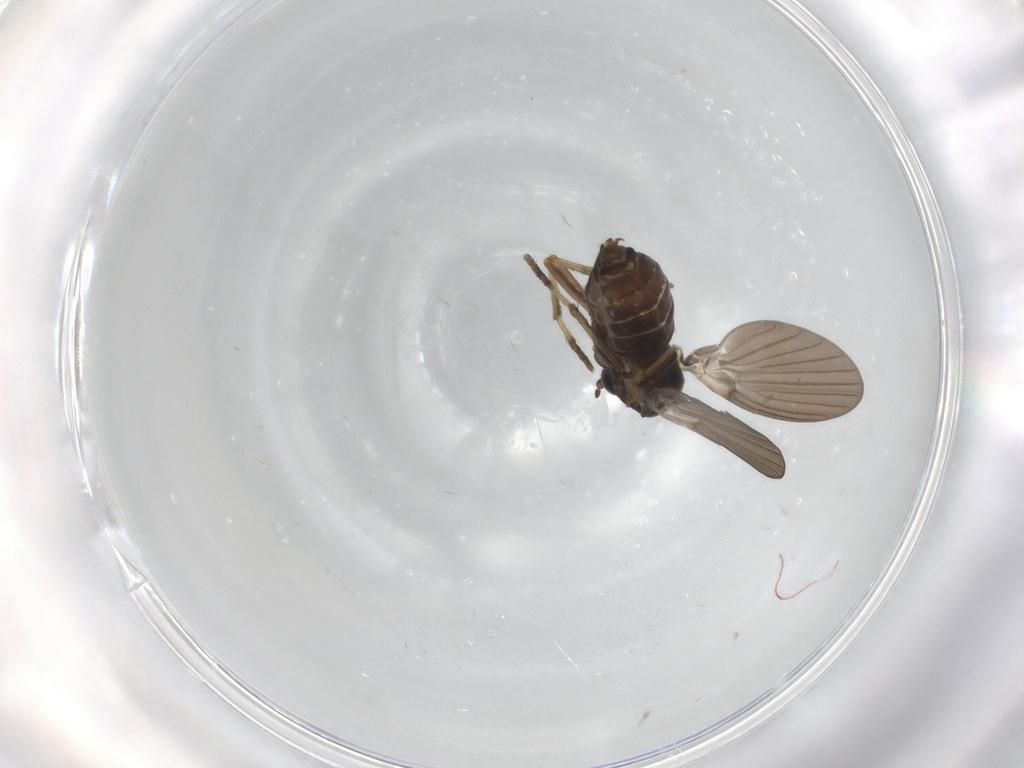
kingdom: Animalia
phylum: Arthropoda
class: Insecta
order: Diptera
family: Psychodidae
